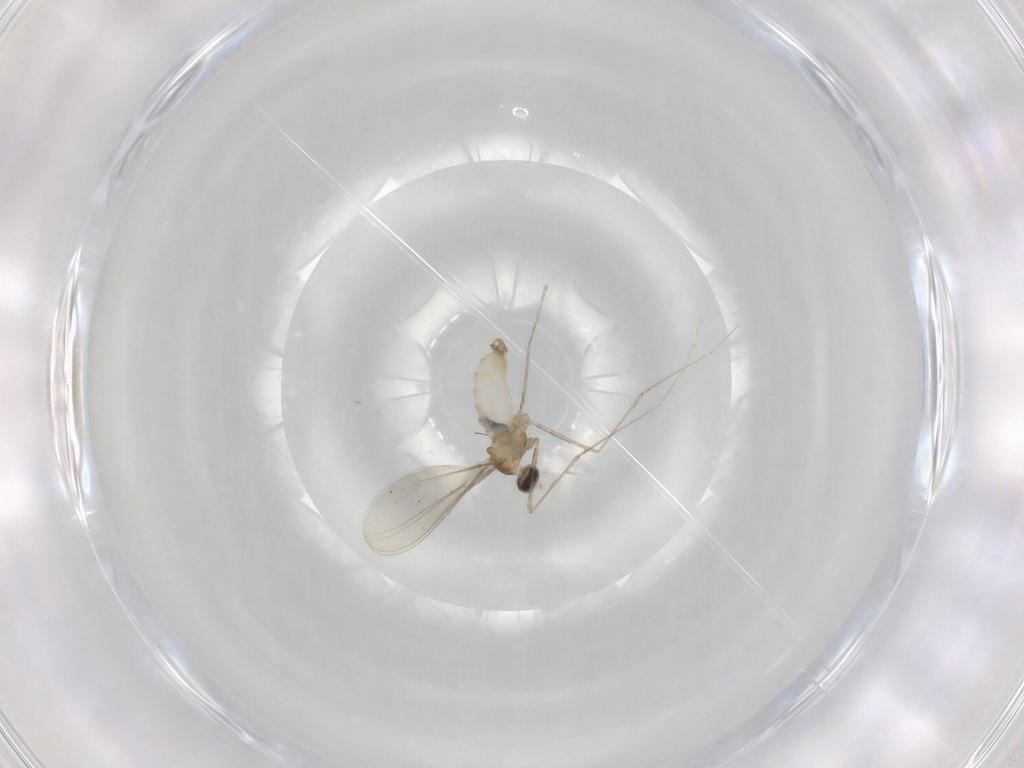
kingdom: Animalia
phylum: Arthropoda
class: Insecta
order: Diptera
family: Cecidomyiidae
